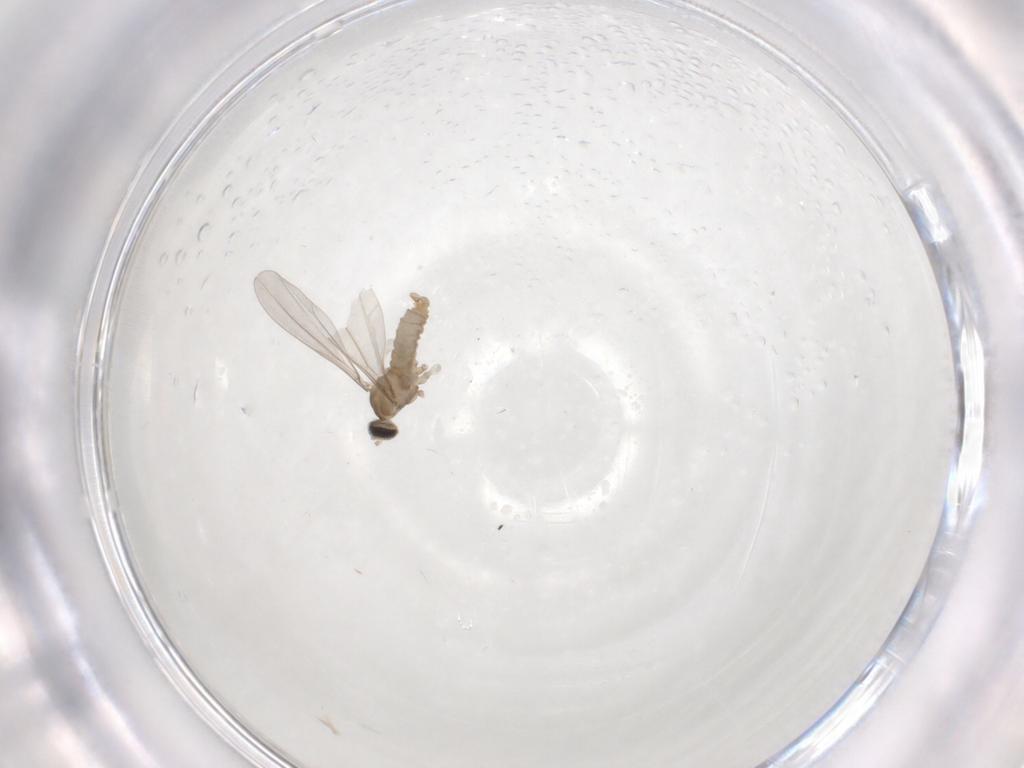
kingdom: Animalia
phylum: Arthropoda
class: Insecta
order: Diptera
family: Cecidomyiidae
